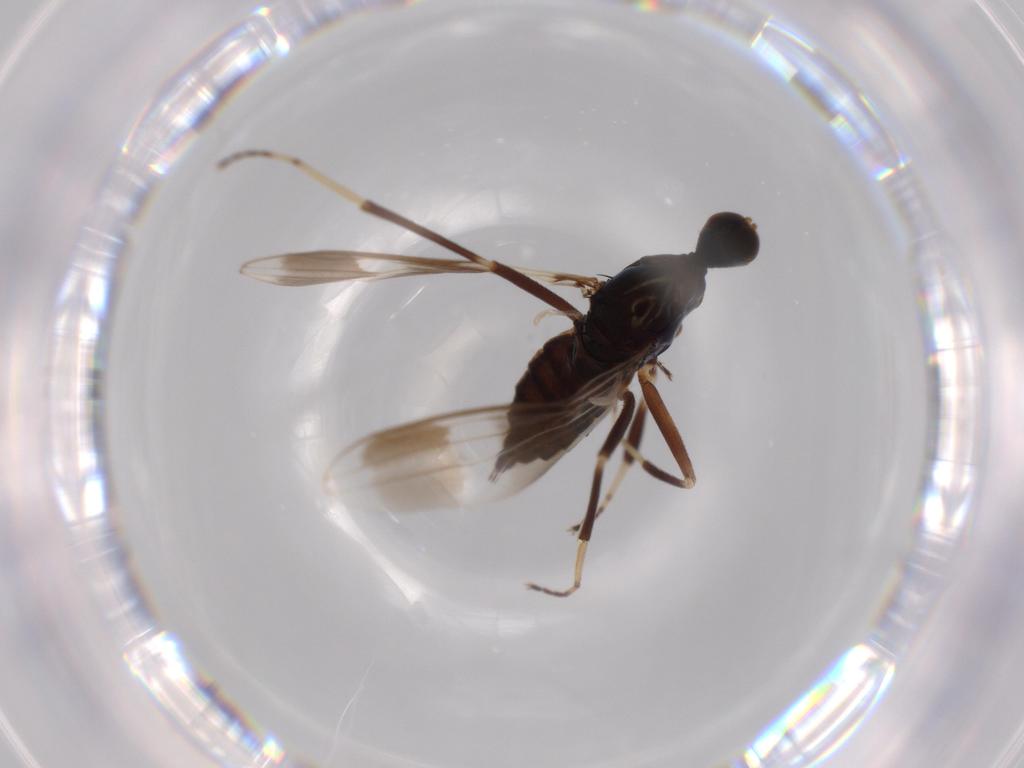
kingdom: Animalia
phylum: Arthropoda
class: Insecta
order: Diptera
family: Hybotidae
